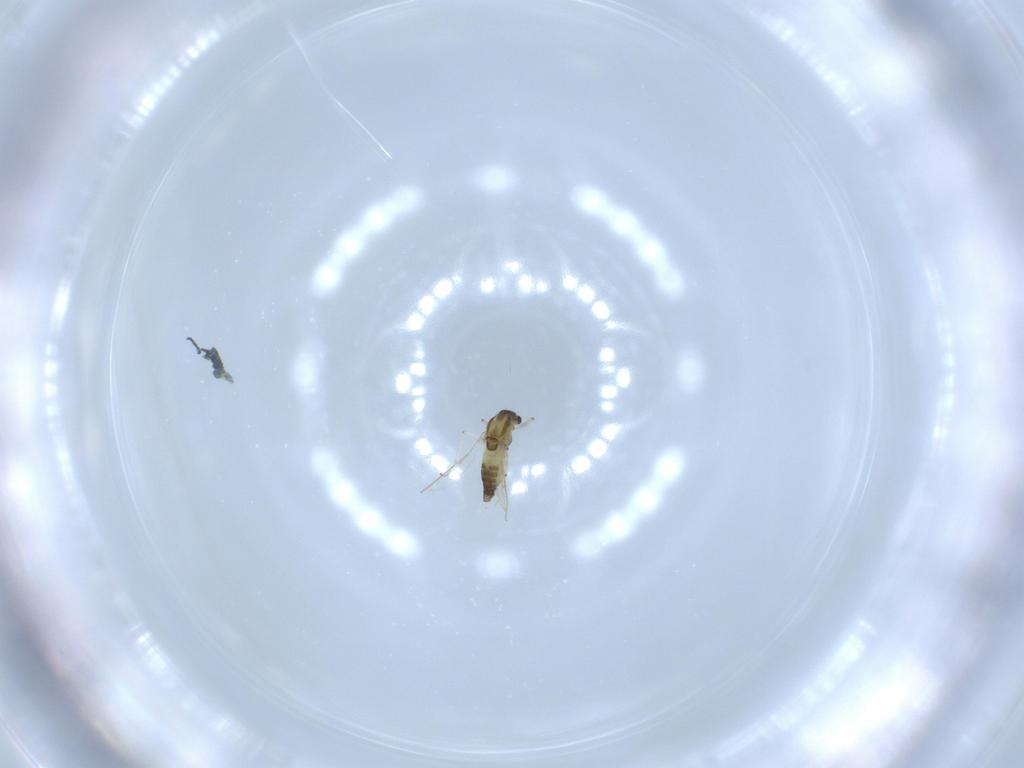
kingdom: Animalia
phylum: Arthropoda
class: Insecta
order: Diptera
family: Chironomidae
